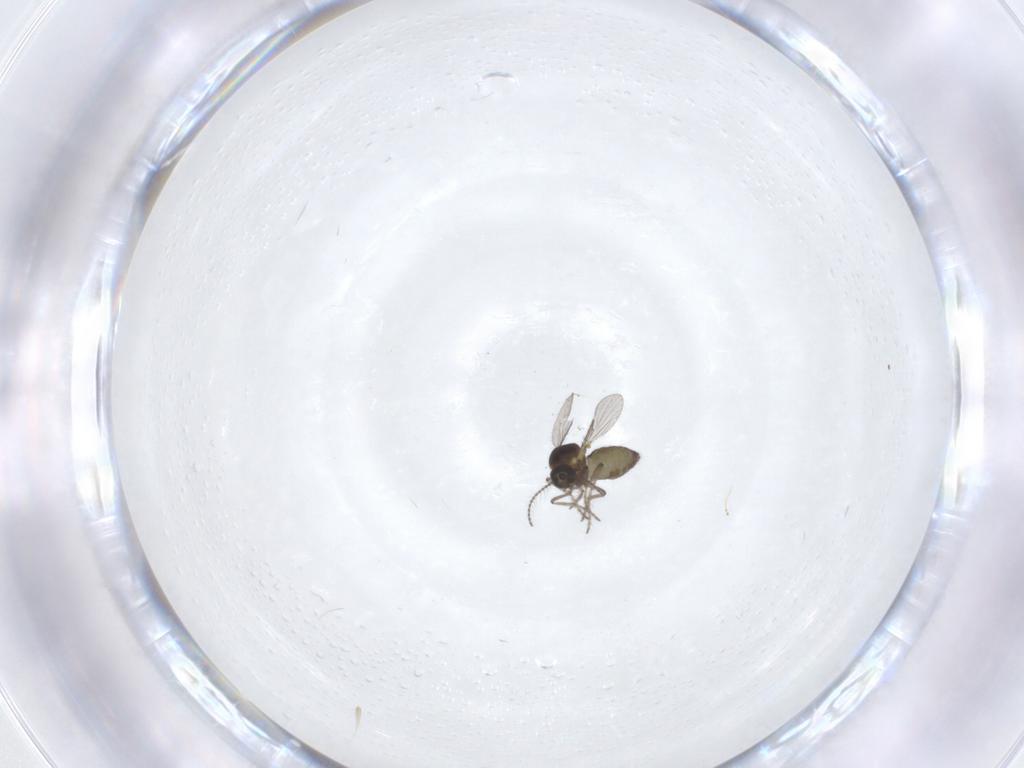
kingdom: Animalia
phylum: Arthropoda
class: Insecta
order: Diptera
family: Ceratopogonidae
